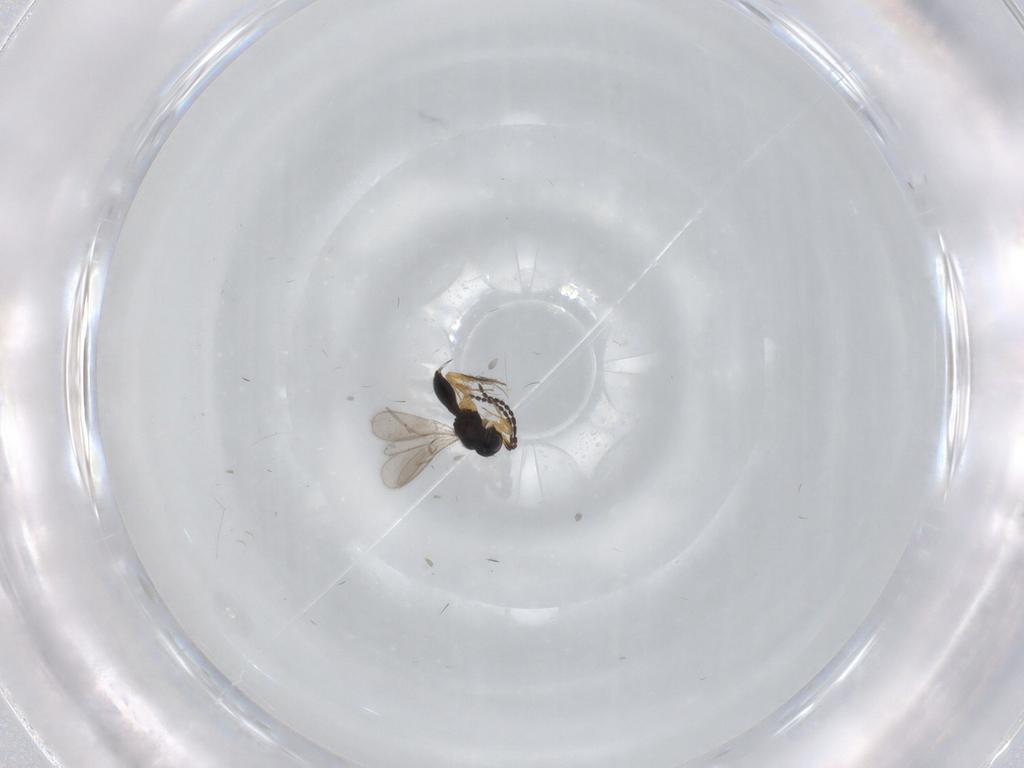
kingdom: Animalia
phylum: Arthropoda
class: Insecta
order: Hymenoptera
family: Scelionidae
